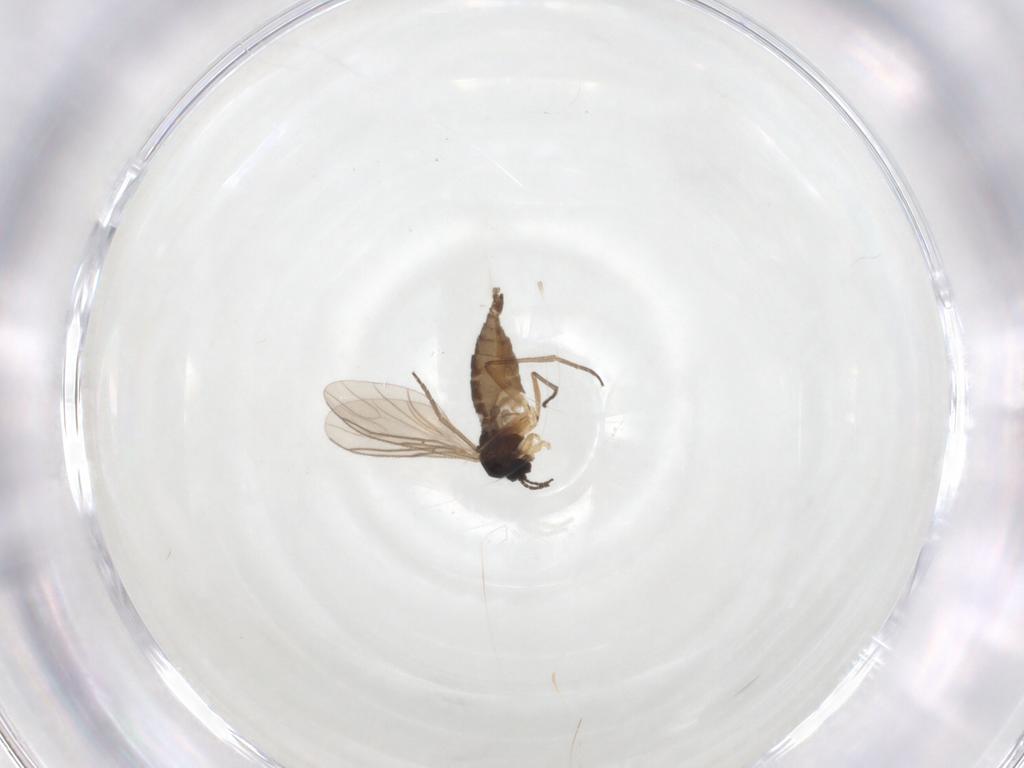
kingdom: Animalia
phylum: Arthropoda
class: Insecta
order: Diptera
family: Sciaridae
